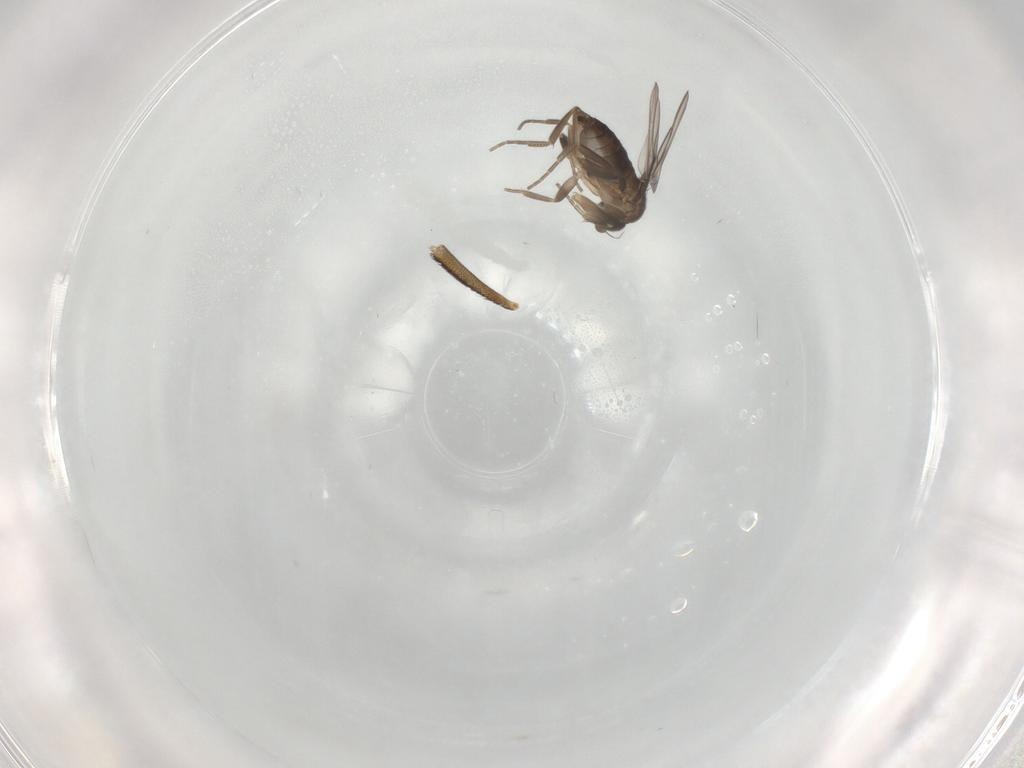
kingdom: Animalia
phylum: Arthropoda
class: Insecta
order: Diptera
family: Phoridae
